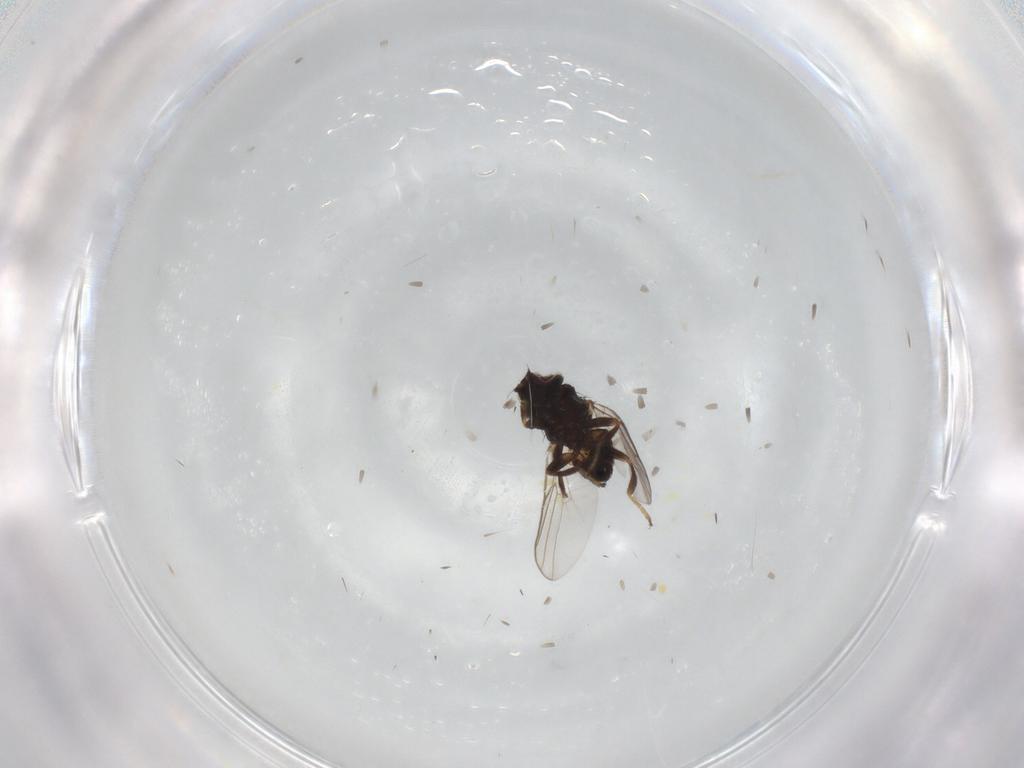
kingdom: Animalia
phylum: Arthropoda
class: Insecta
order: Diptera
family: Chloropidae
